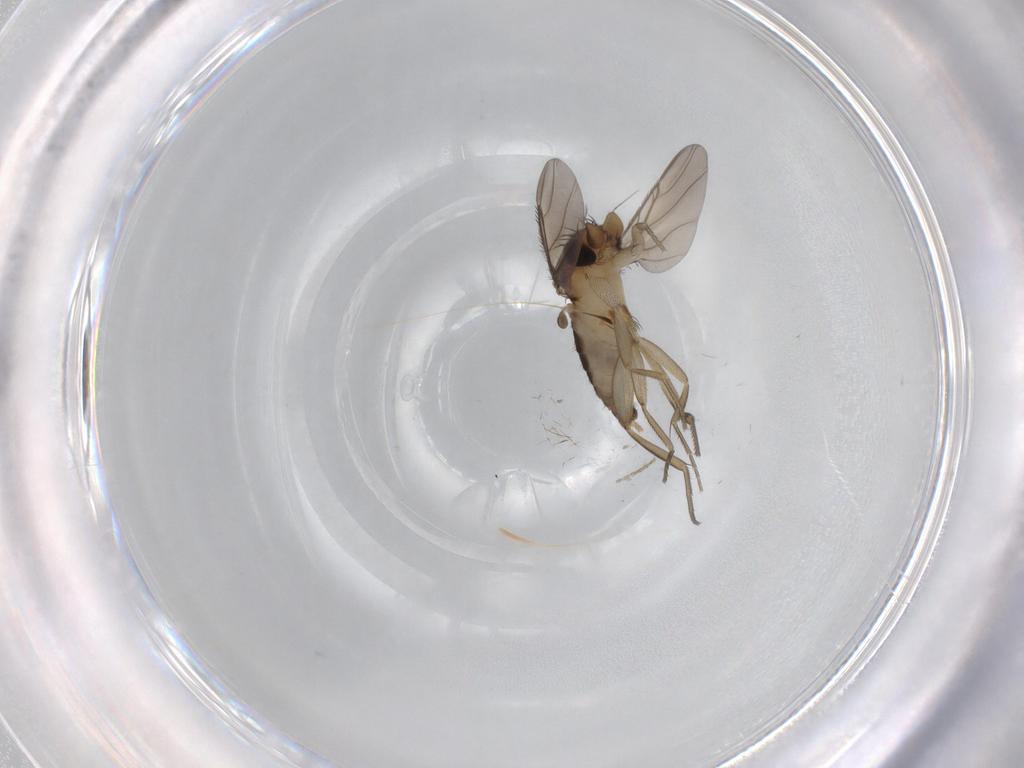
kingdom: Animalia
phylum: Arthropoda
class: Insecta
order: Diptera
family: Phoridae
